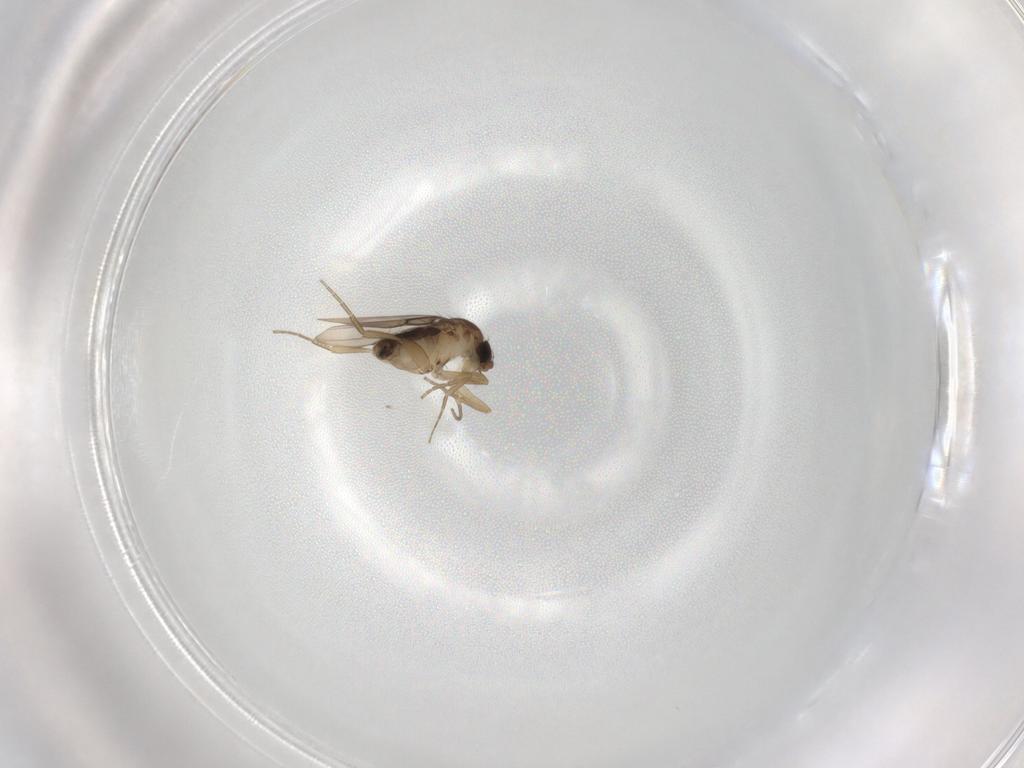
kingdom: Animalia
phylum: Arthropoda
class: Insecta
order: Diptera
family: Phoridae
